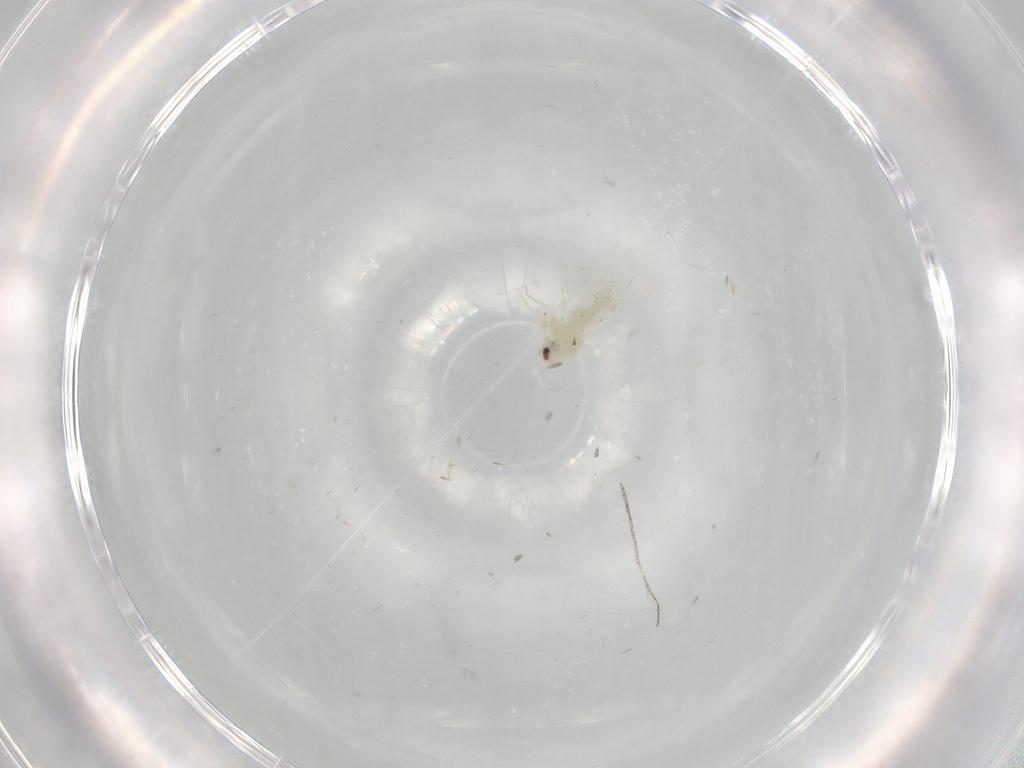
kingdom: Animalia
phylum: Arthropoda
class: Insecta
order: Hemiptera
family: Aleyrodidae
